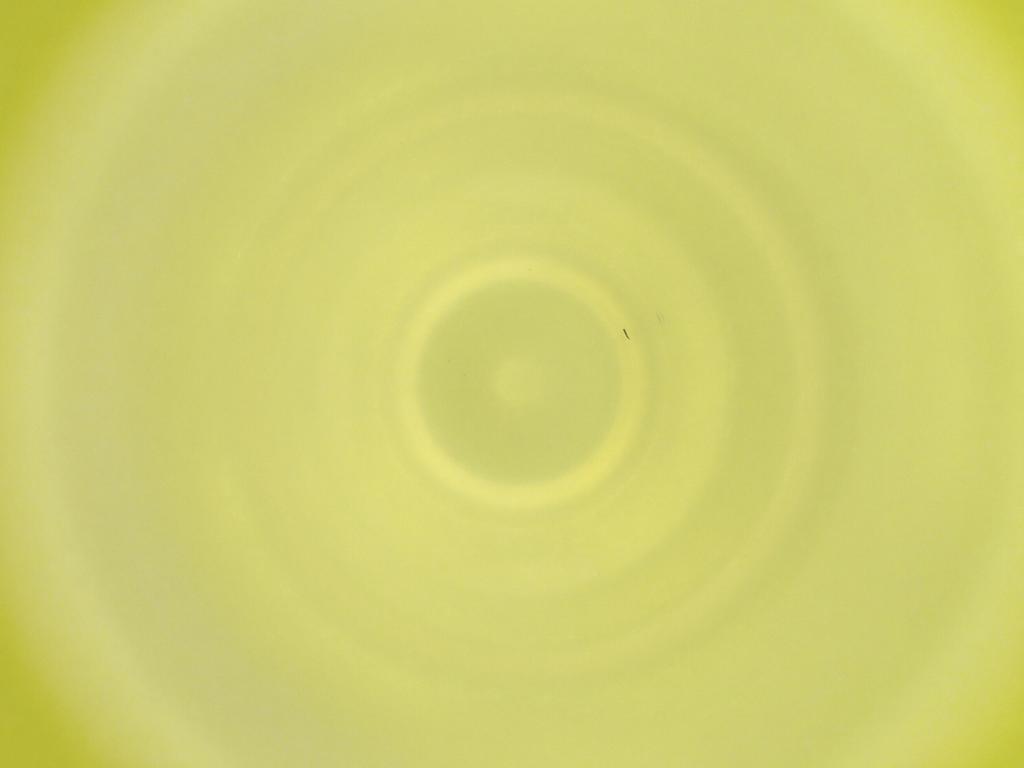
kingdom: Animalia
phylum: Arthropoda
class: Insecta
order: Diptera
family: Cecidomyiidae
